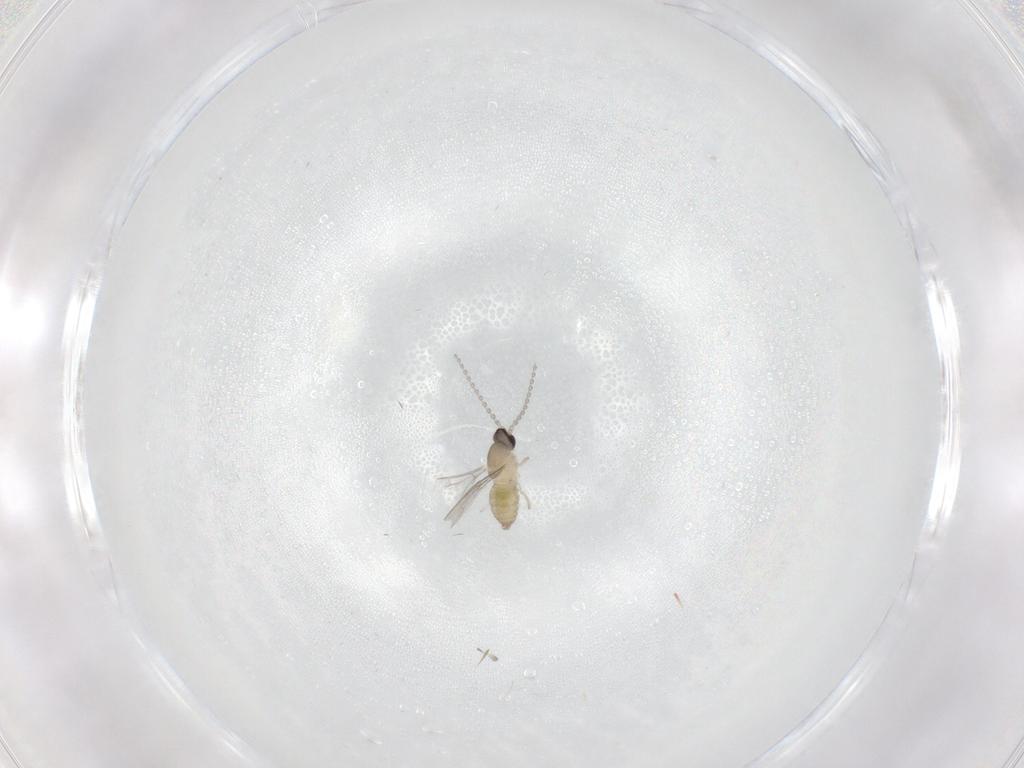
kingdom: Animalia
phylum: Arthropoda
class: Insecta
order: Diptera
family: Cecidomyiidae
